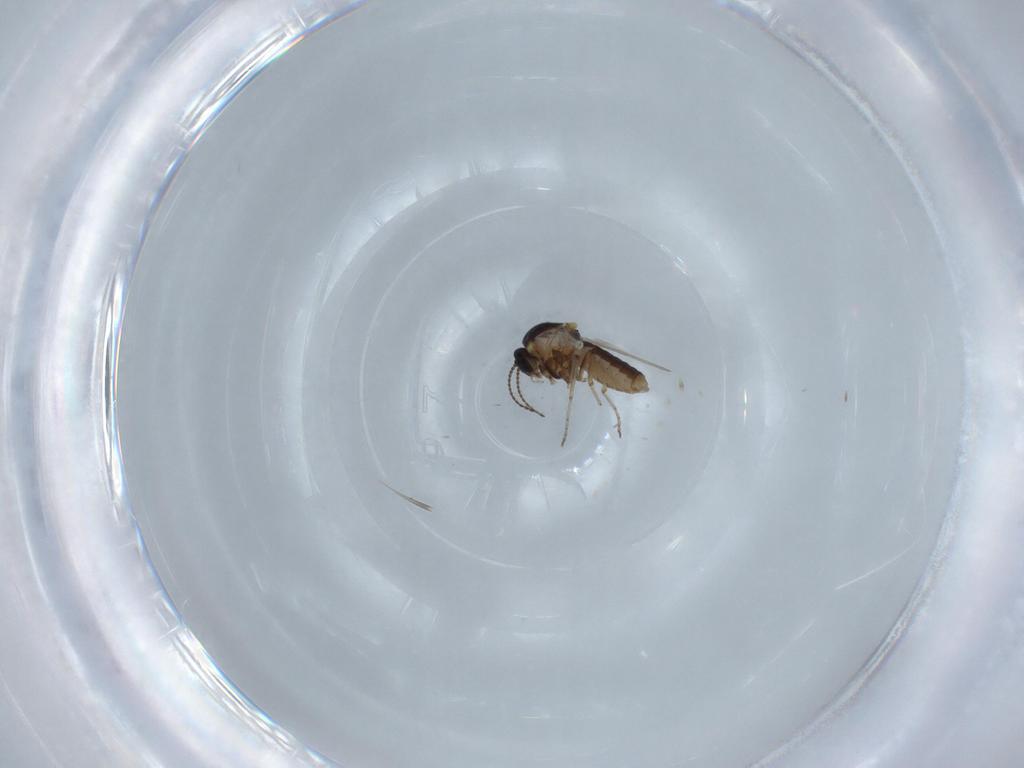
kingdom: Animalia
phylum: Arthropoda
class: Insecta
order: Diptera
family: Ceratopogonidae
